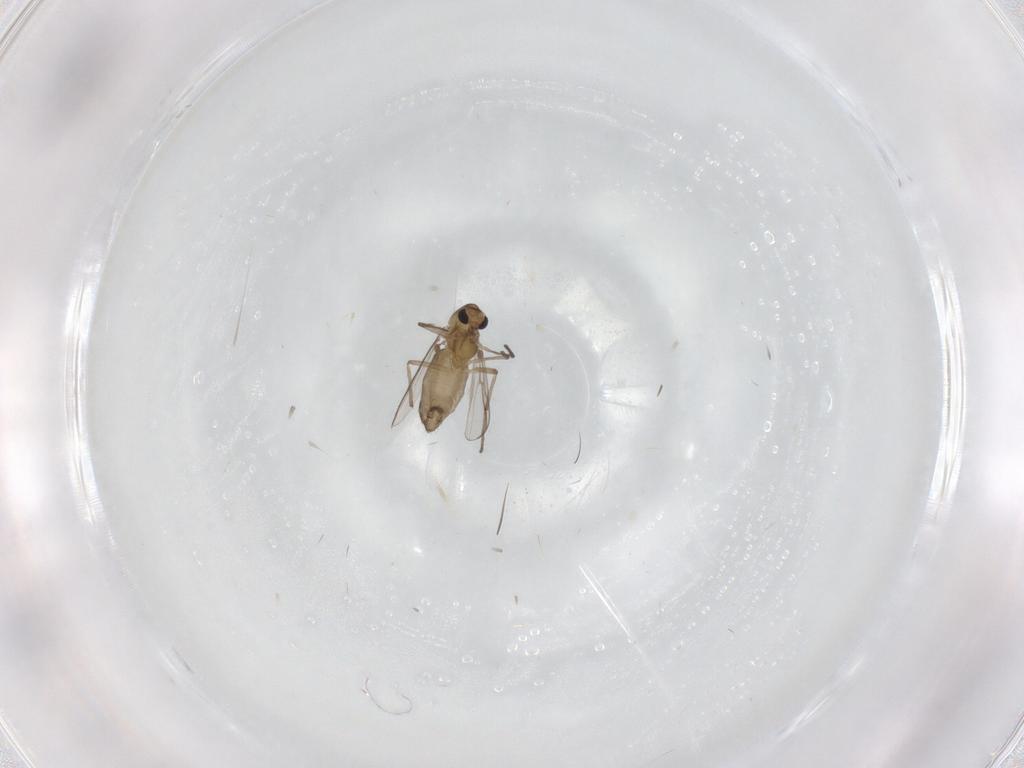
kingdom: Animalia
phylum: Arthropoda
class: Insecta
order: Diptera
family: Chironomidae
